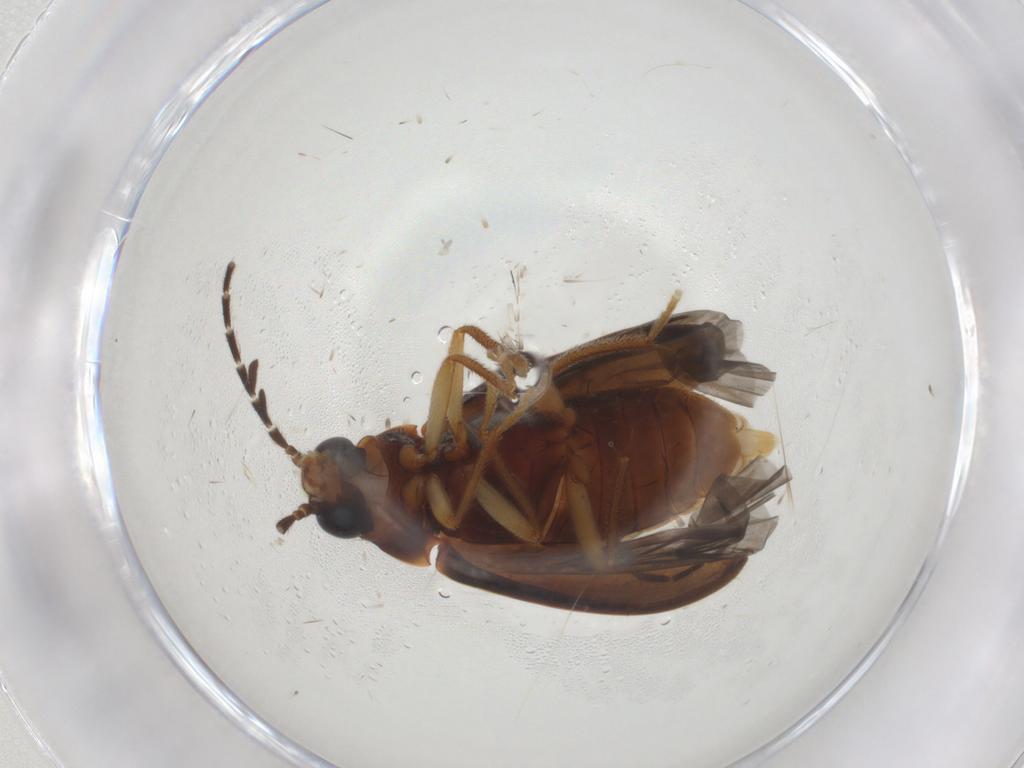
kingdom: Animalia
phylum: Arthropoda
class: Insecta
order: Coleoptera
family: Ptilodactylidae
